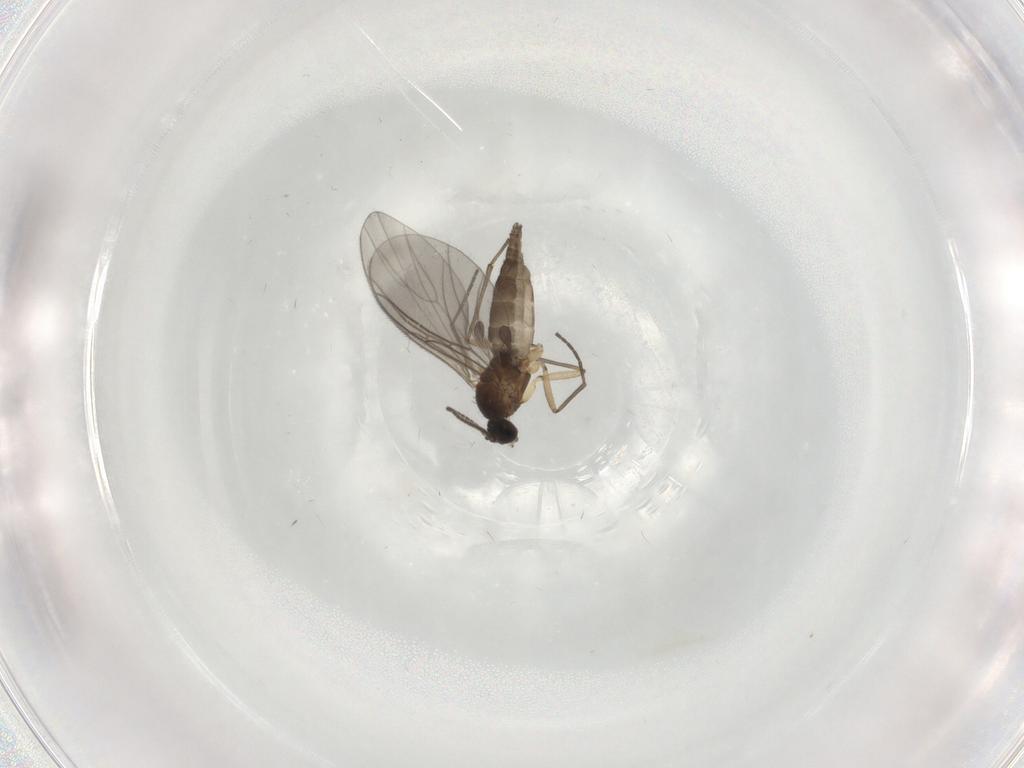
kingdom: Animalia
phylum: Arthropoda
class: Insecta
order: Diptera
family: Sciaridae
